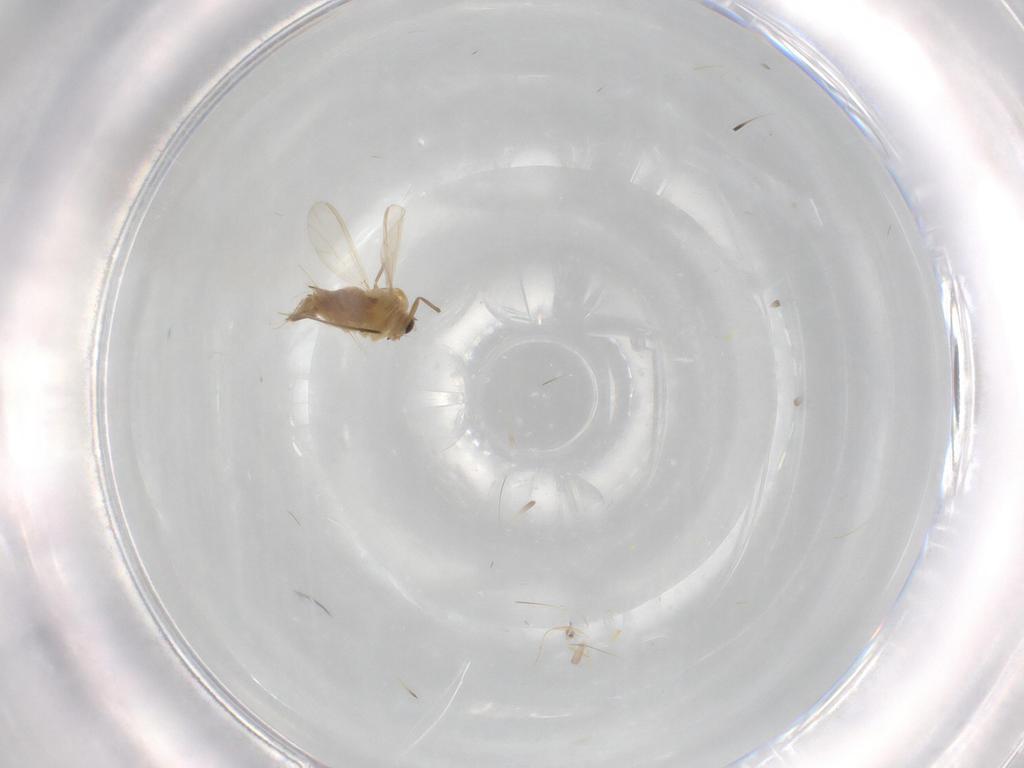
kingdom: Animalia
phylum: Arthropoda
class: Insecta
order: Diptera
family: Chironomidae
